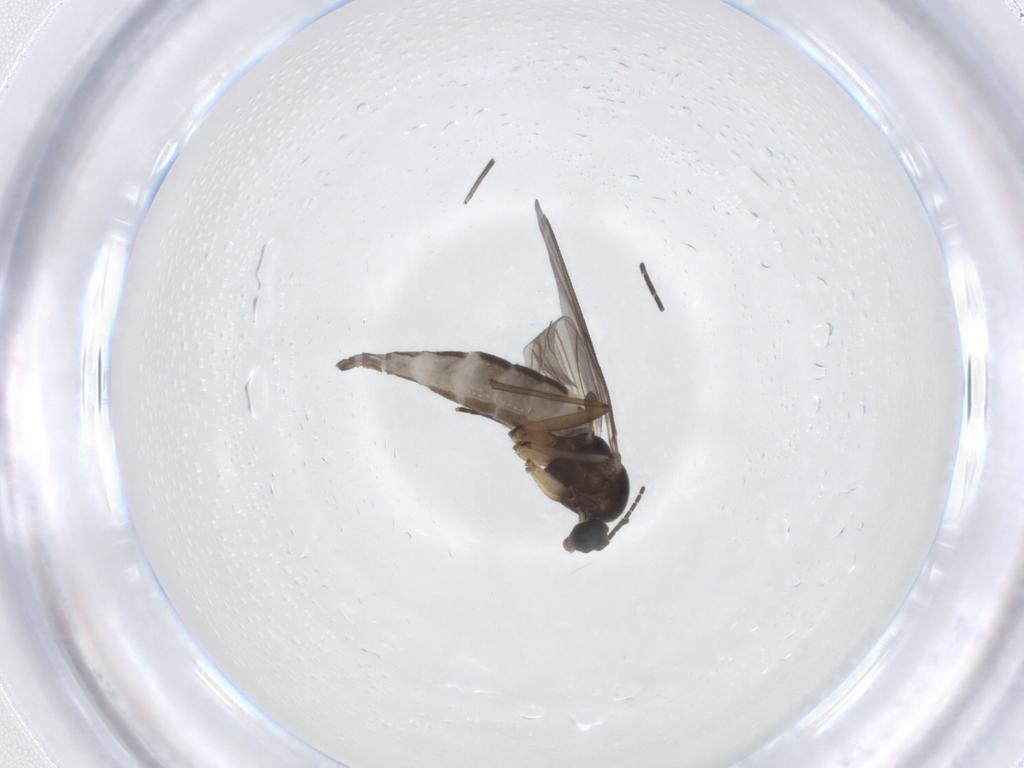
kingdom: Animalia
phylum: Arthropoda
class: Insecta
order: Diptera
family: Sciaridae
